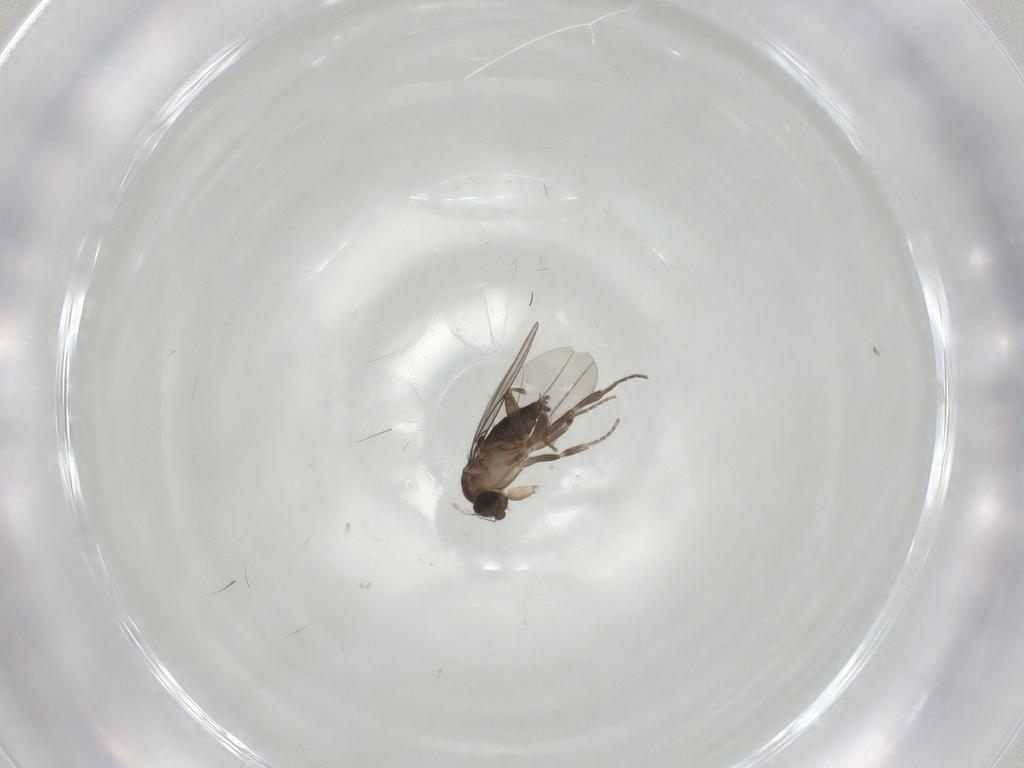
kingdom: Animalia
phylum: Arthropoda
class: Insecta
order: Diptera
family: Phoridae
